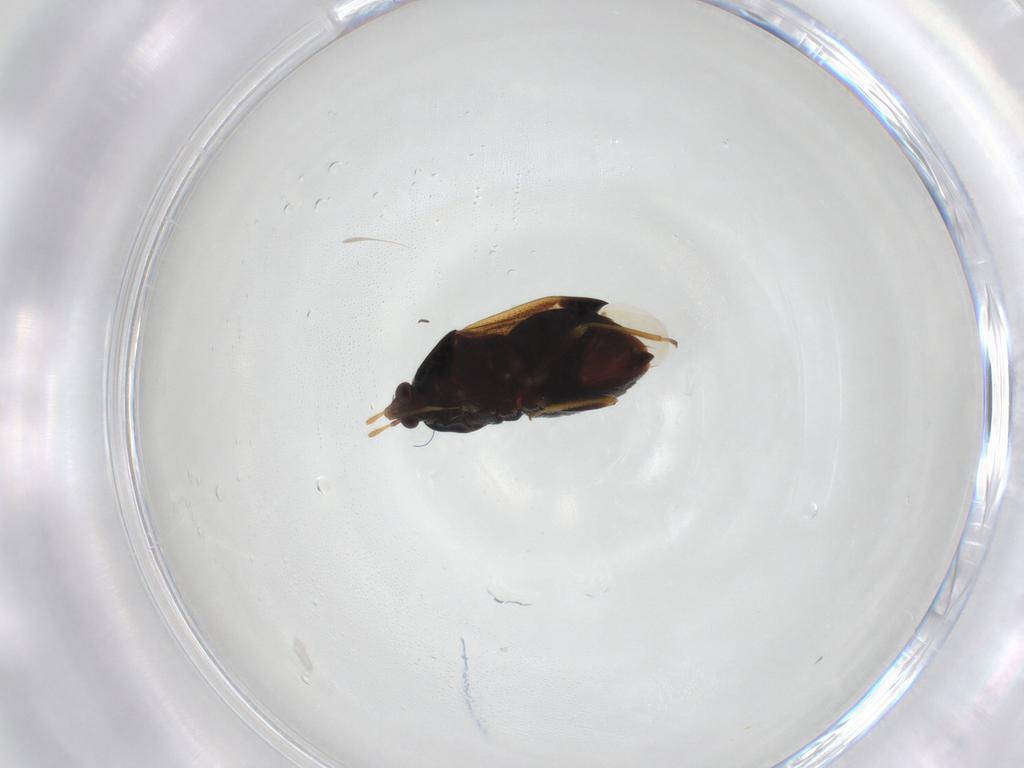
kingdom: Animalia
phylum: Arthropoda
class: Insecta
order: Hemiptera
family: Anthocoridae
